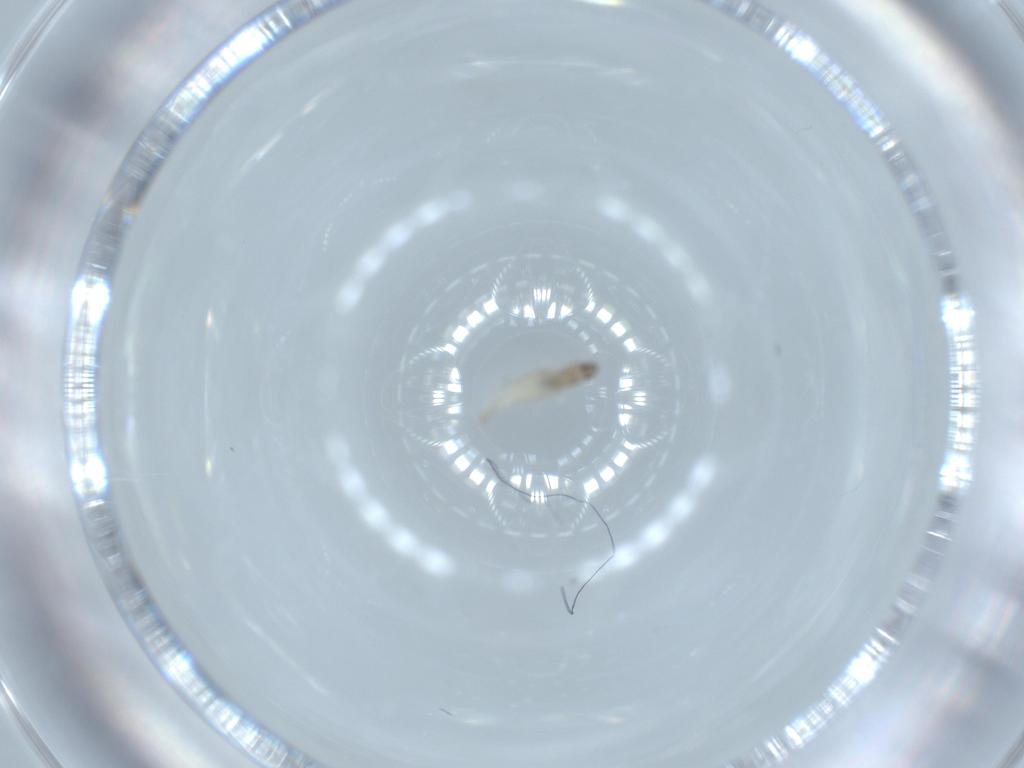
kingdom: Animalia
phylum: Arthropoda
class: Insecta
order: Diptera
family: Cecidomyiidae
